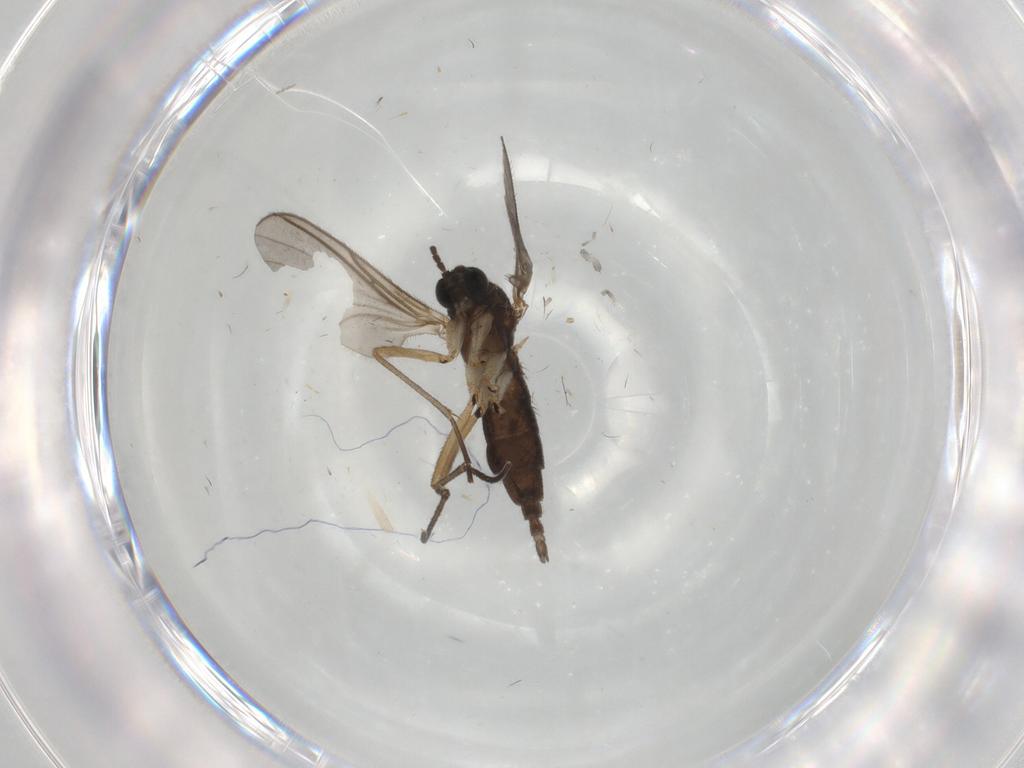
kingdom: Animalia
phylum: Arthropoda
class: Insecta
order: Diptera
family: Sciaridae
